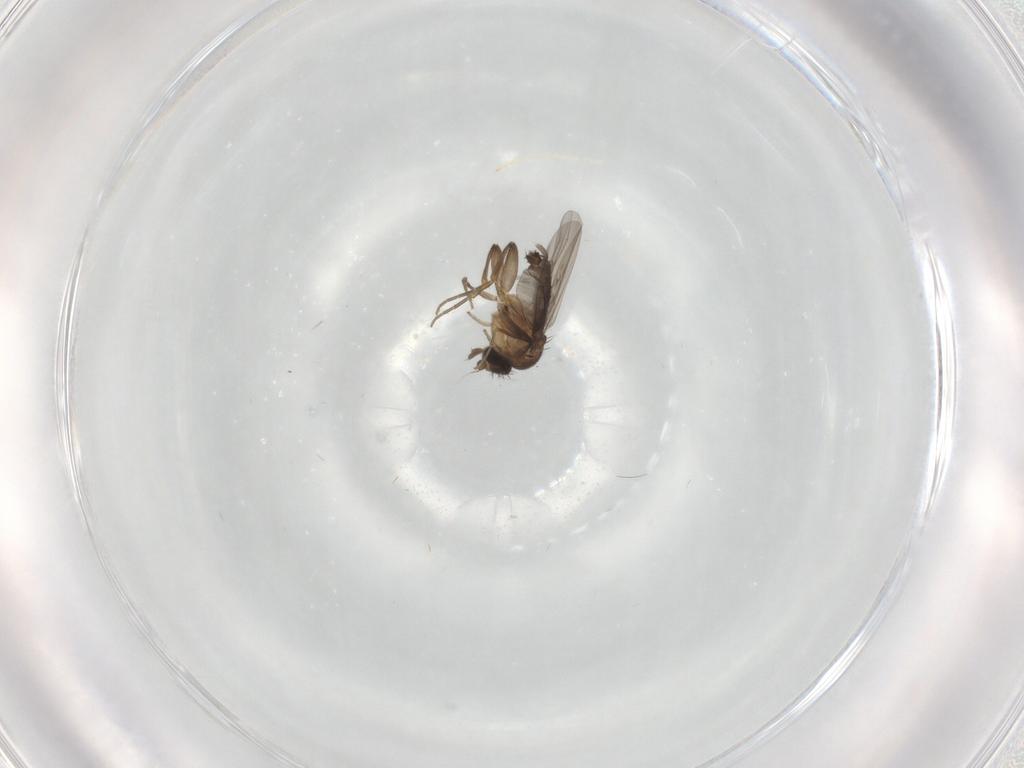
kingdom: Animalia
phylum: Arthropoda
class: Insecta
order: Diptera
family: Phoridae
